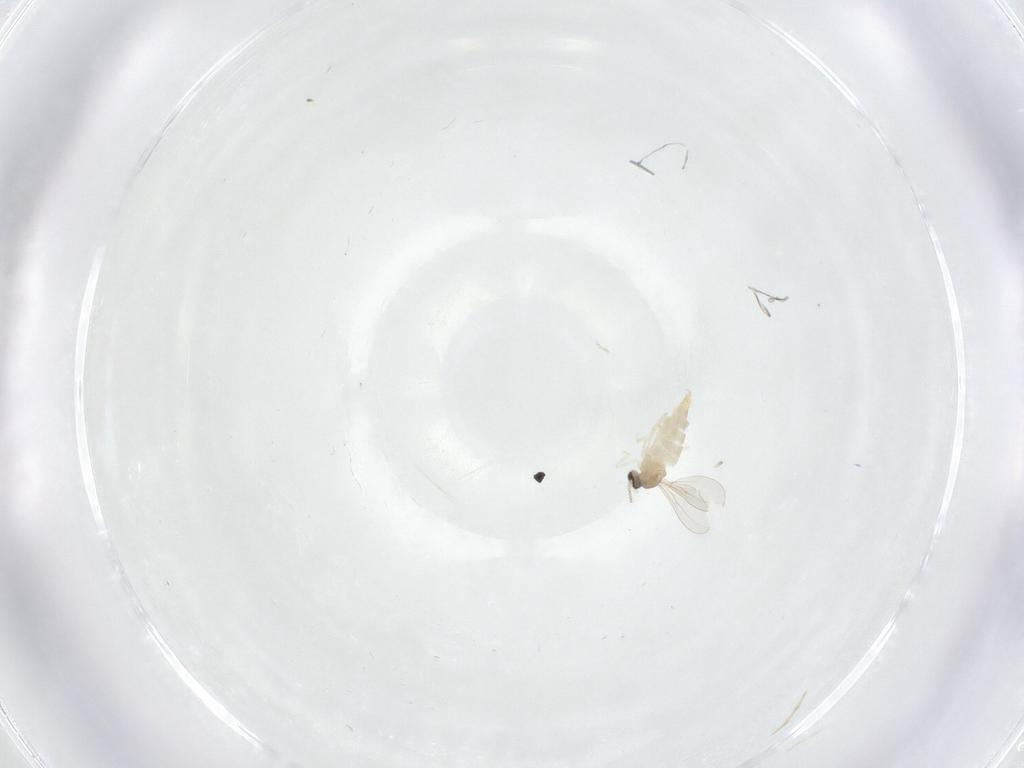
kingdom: Animalia
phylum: Arthropoda
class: Insecta
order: Diptera
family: Cecidomyiidae
